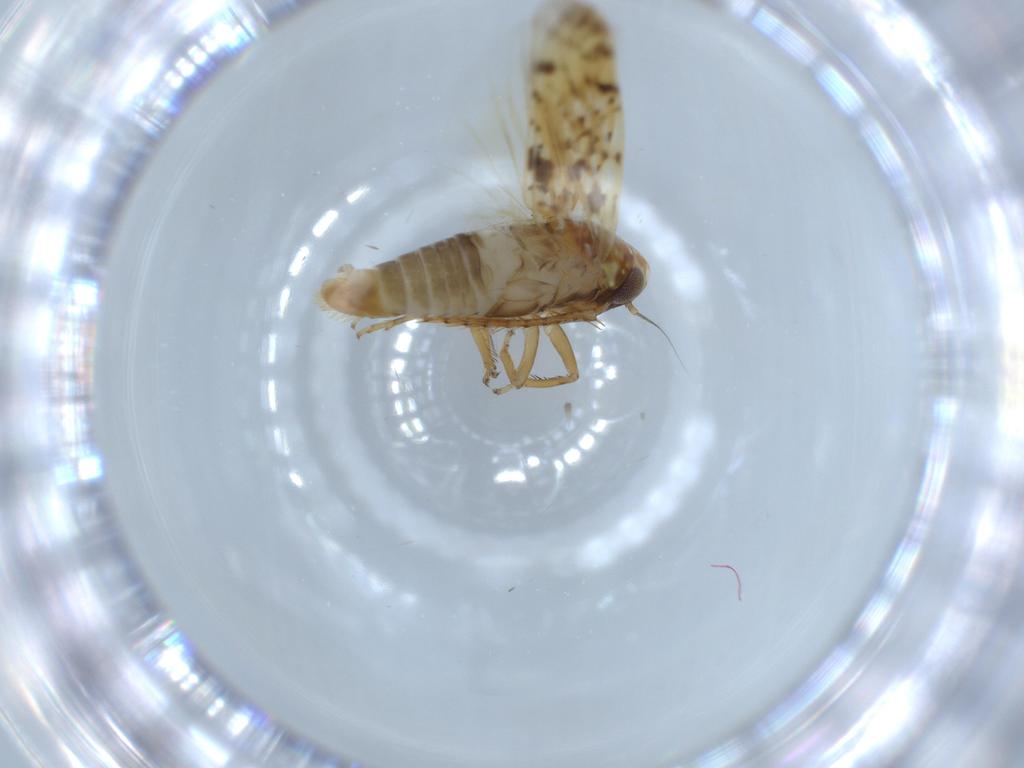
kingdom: Animalia
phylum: Arthropoda
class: Insecta
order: Hemiptera
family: Cicadellidae
